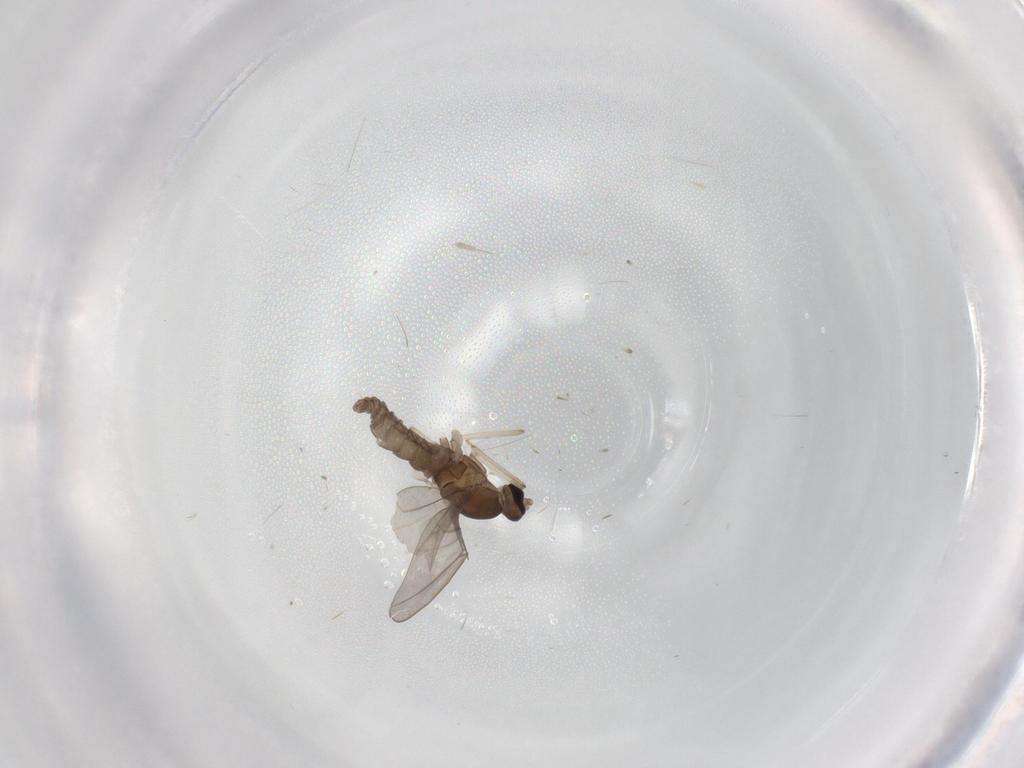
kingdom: Animalia
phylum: Arthropoda
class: Insecta
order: Diptera
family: Cecidomyiidae
